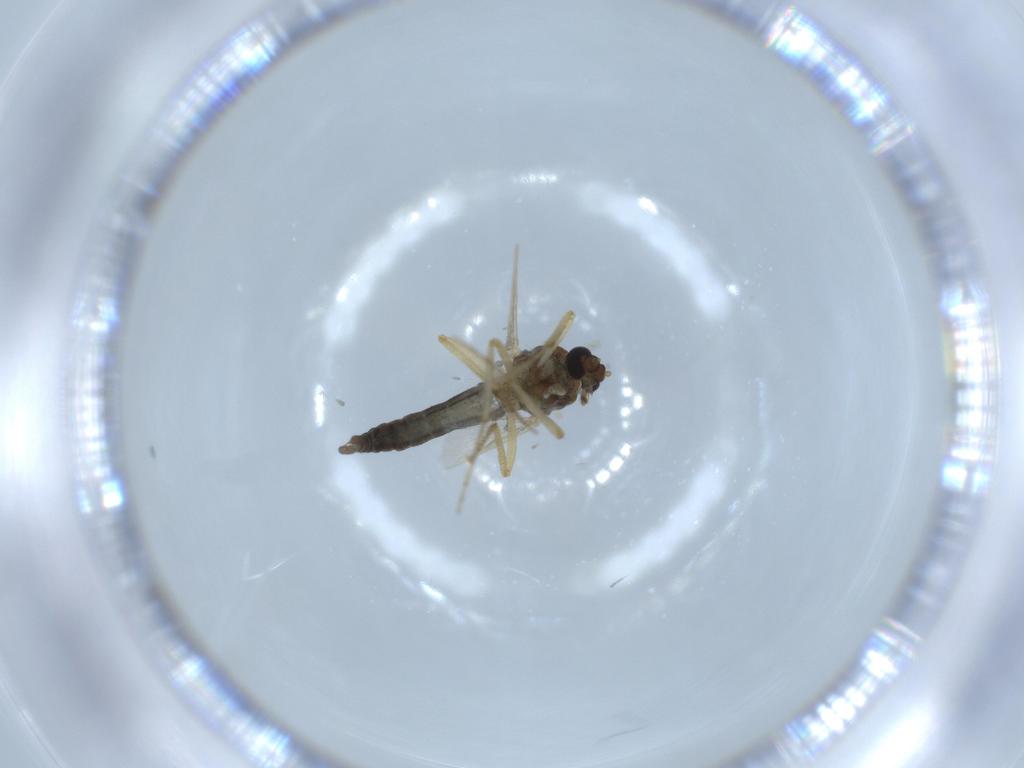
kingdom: Animalia
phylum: Arthropoda
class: Insecta
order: Diptera
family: Ceratopogonidae
